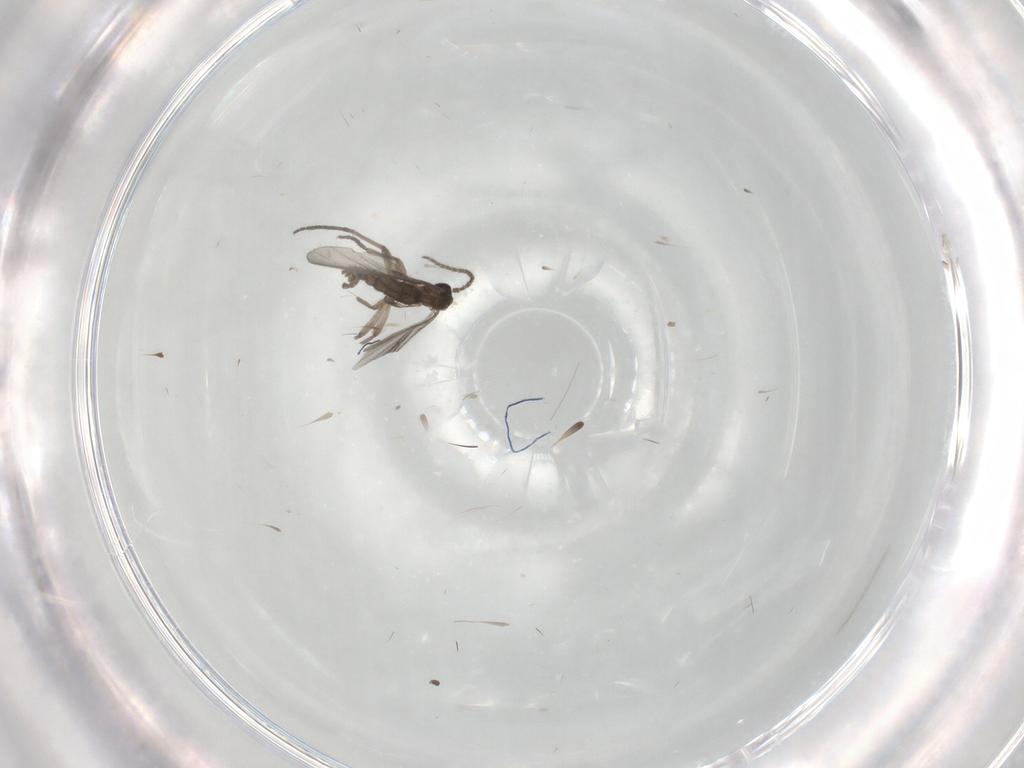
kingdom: Animalia
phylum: Arthropoda
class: Insecta
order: Diptera
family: Sciaridae
